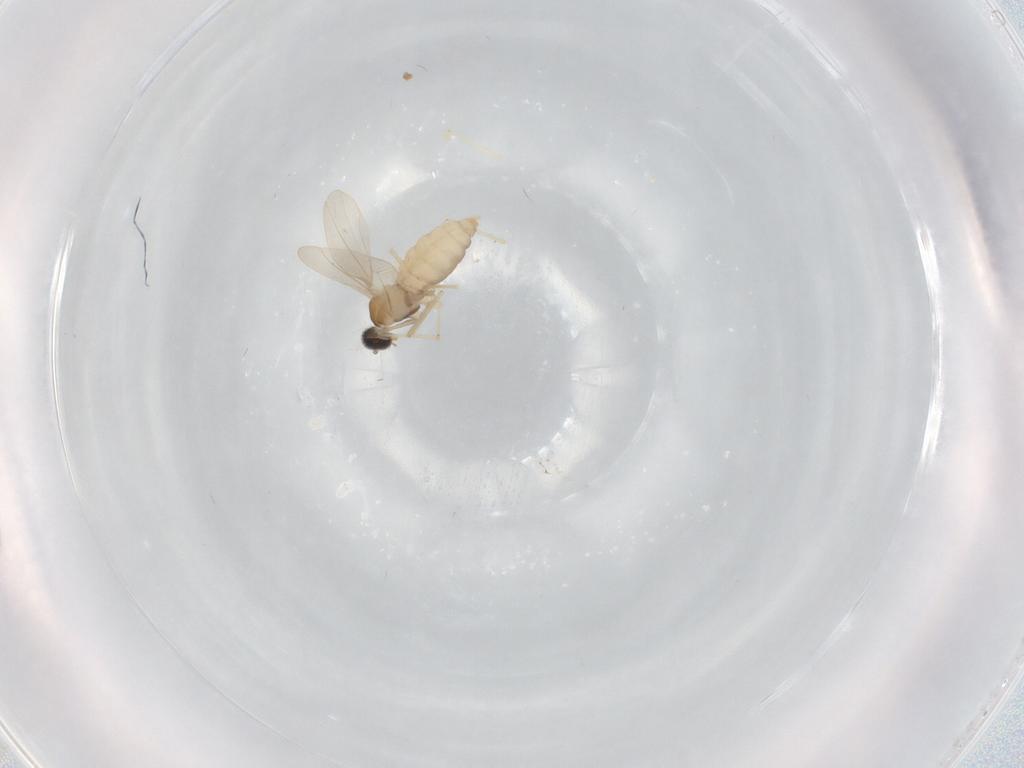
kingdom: Animalia
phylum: Arthropoda
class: Insecta
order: Diptera
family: Cecidomyiidae
